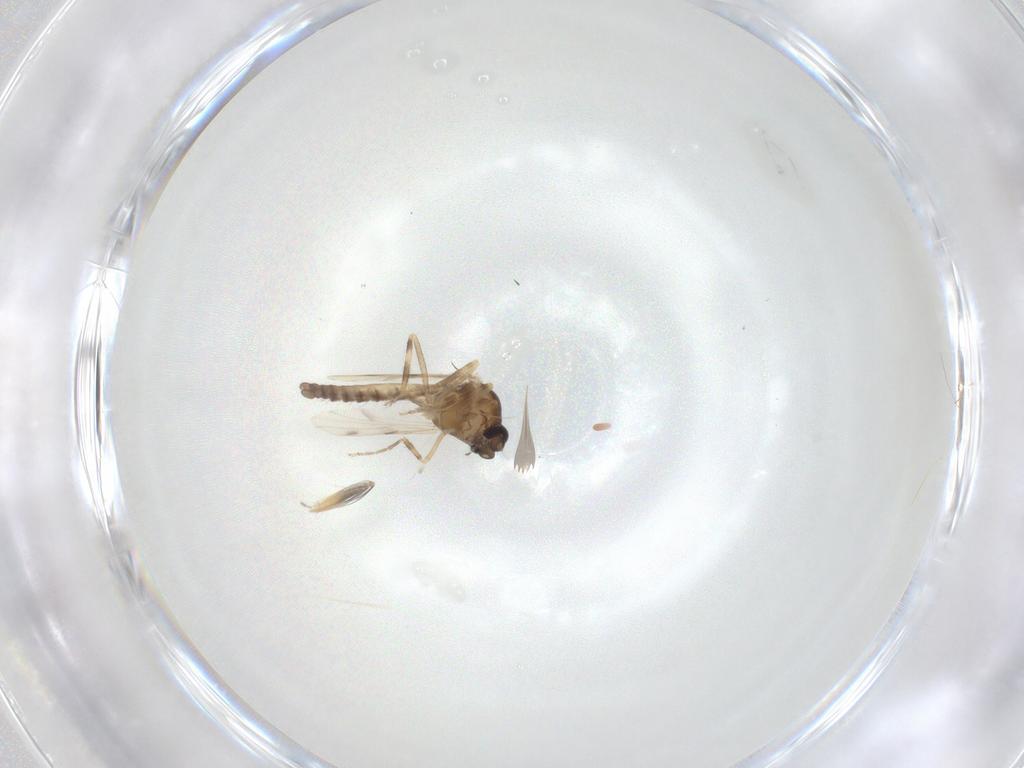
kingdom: Animalia
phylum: Arthropoda
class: Insecta
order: Diptera
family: Ceratopogonidae
